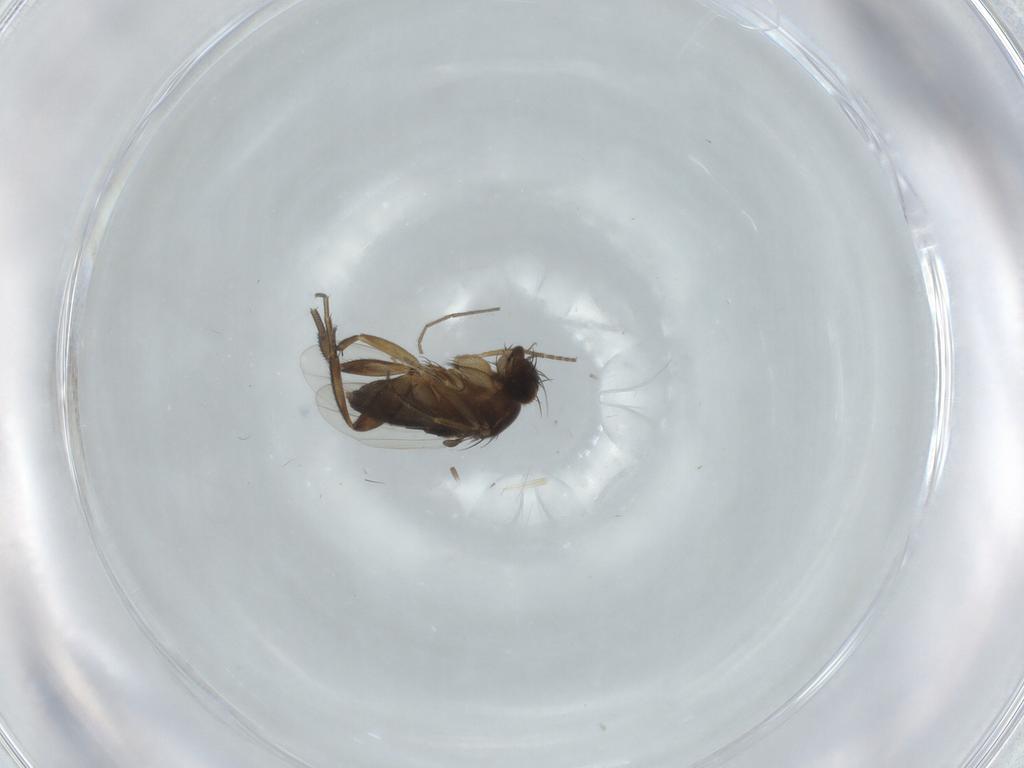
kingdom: Animalia
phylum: Arthropoda
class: Insecta
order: Diptera
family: Phoridae
